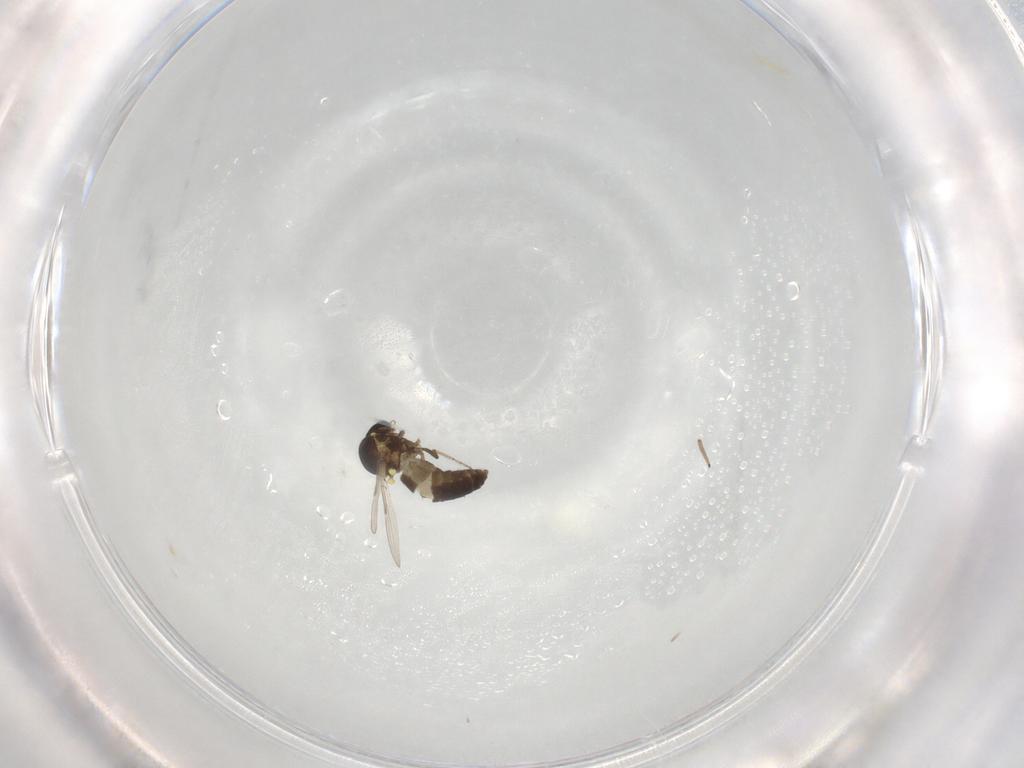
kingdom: Animalia
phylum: Arthropoda
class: Insecta
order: Diptera
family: Ceratopogonidae
